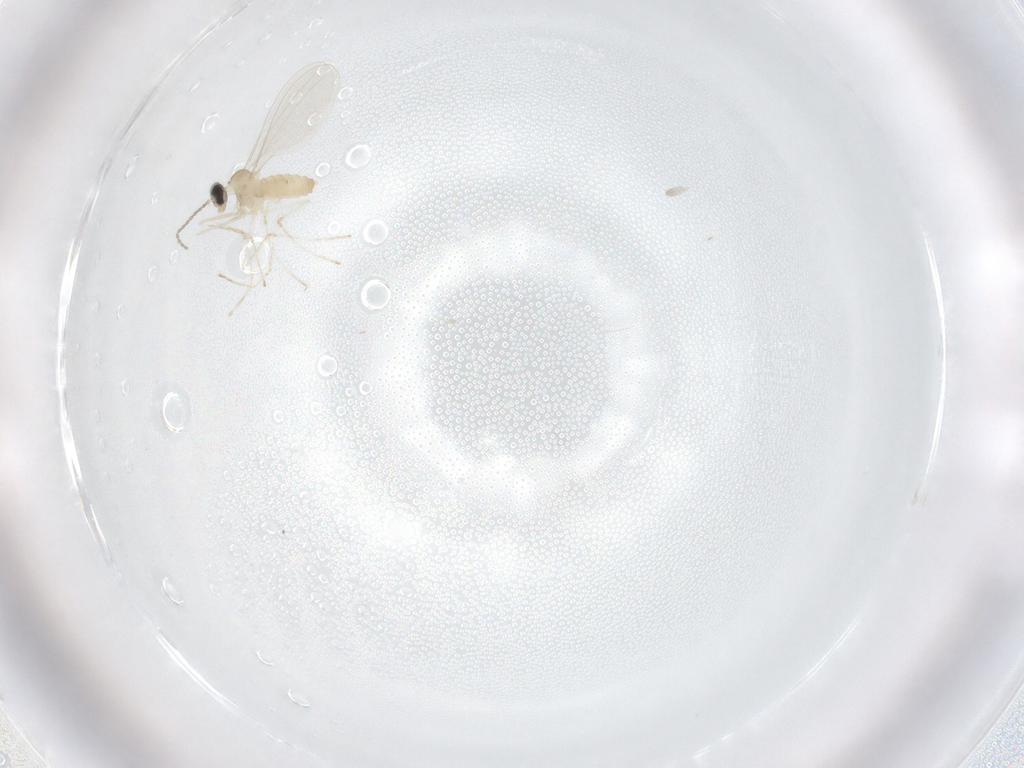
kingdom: Animalia
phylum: Arthropoda
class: Insecta
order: Diptera
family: Cecidomyiidae
